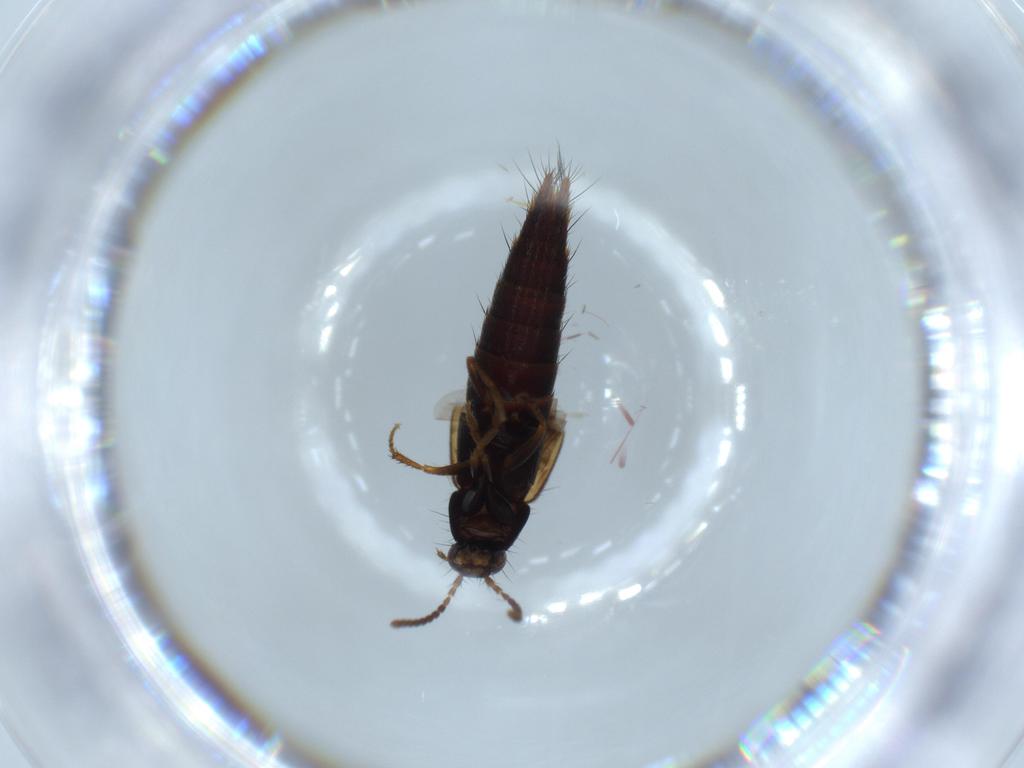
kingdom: Animalia
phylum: Arthropoda
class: Insecta
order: Coleoptera
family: Staphylinidae
